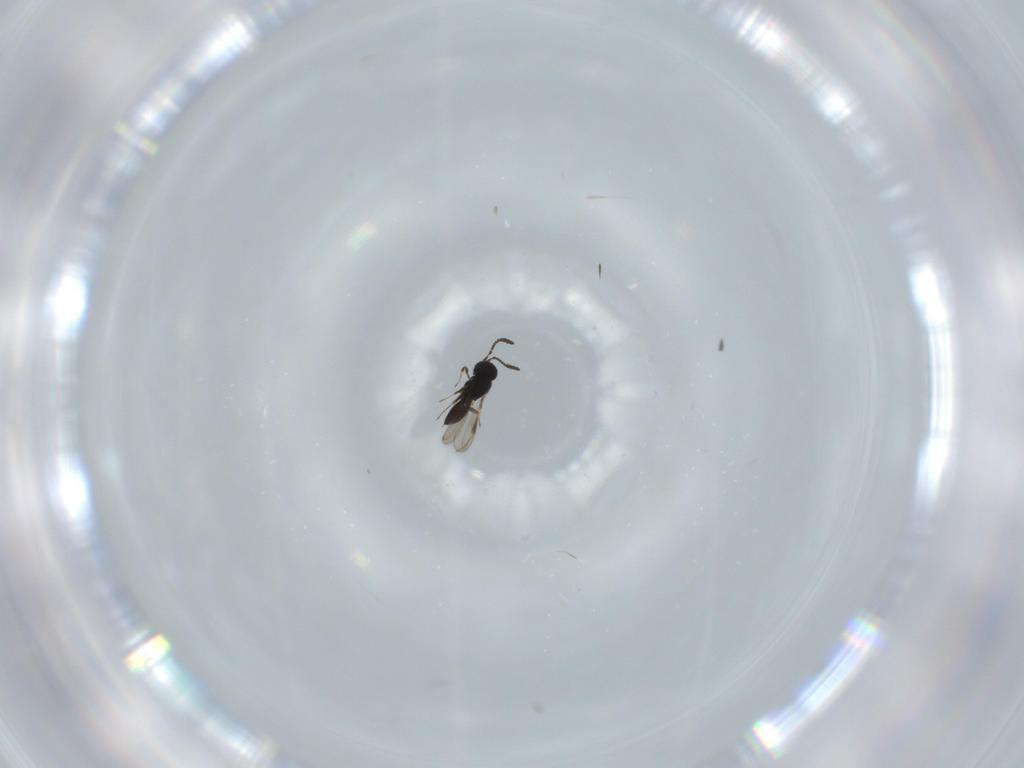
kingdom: Animalia
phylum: Arthropoda
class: Insecta
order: Hymenoptera
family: Scelionidae
